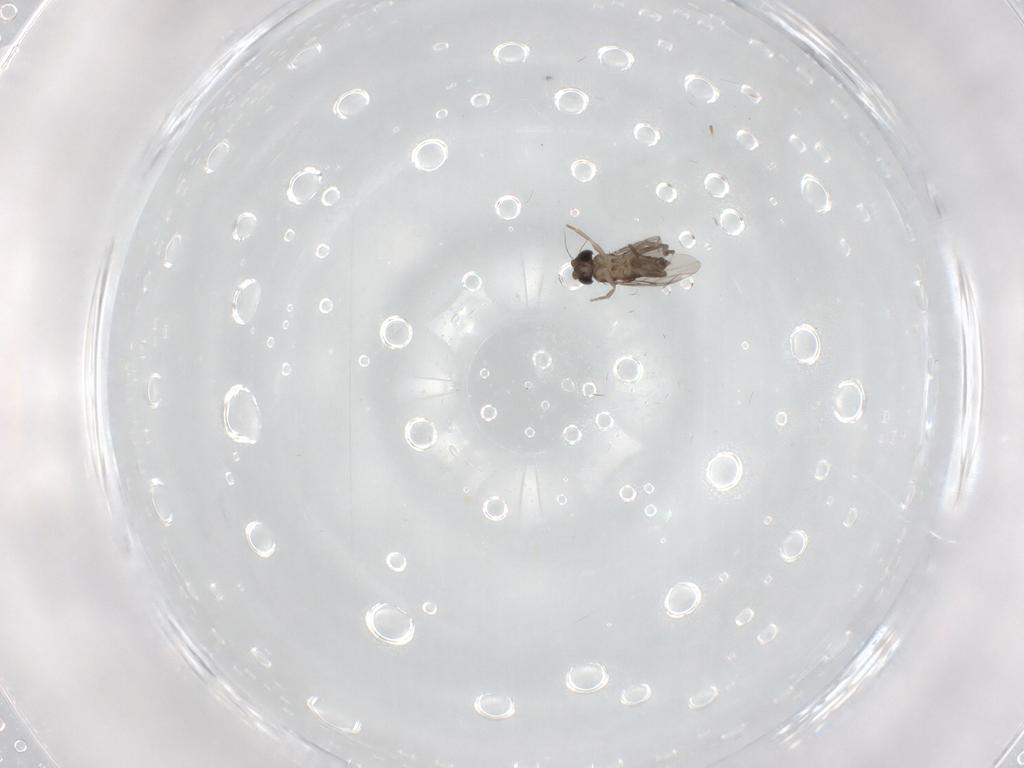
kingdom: Animalia
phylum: Arthropoda
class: Insecta
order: Diptera
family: Phoridae
